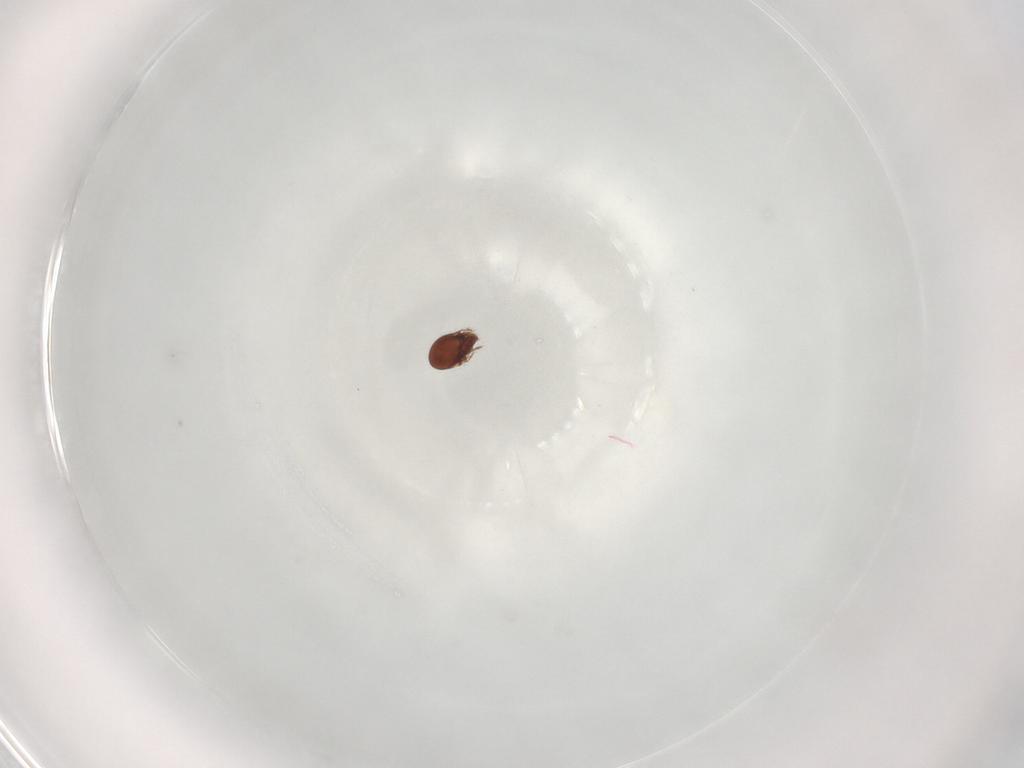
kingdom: Animalia
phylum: Arthropoda
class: Arachnida
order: Sarcoptiformes
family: Ceratozetidae
